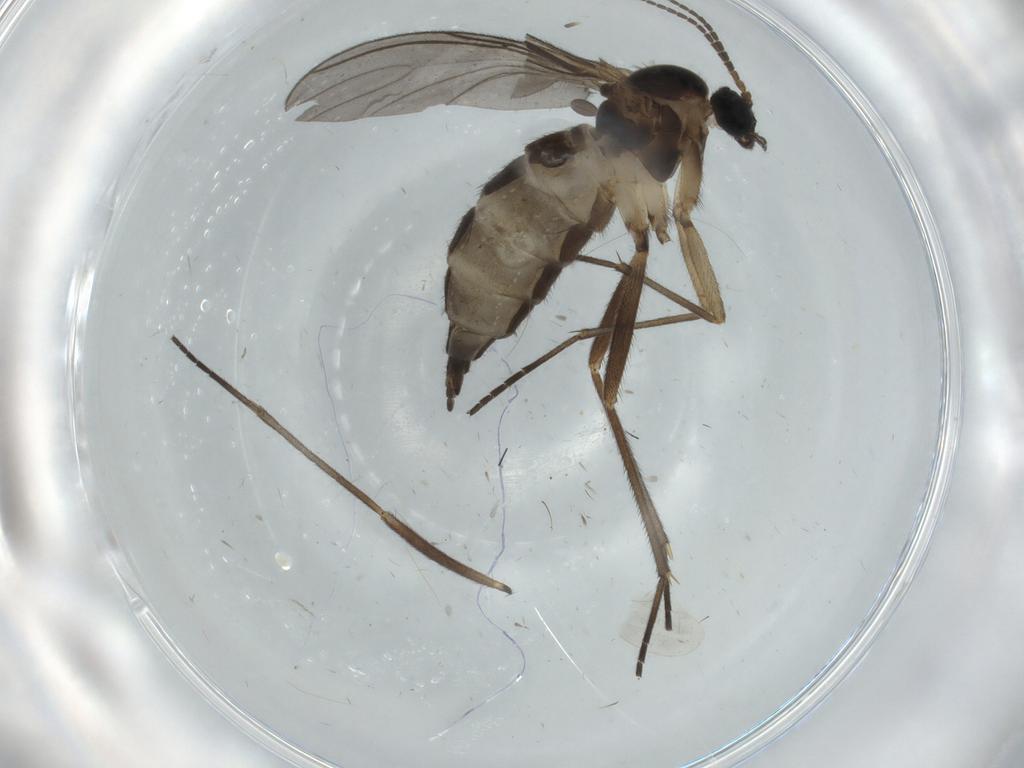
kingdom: Animalia
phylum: Arthropoda
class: Insecta
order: Diptera
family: Sciaridae
